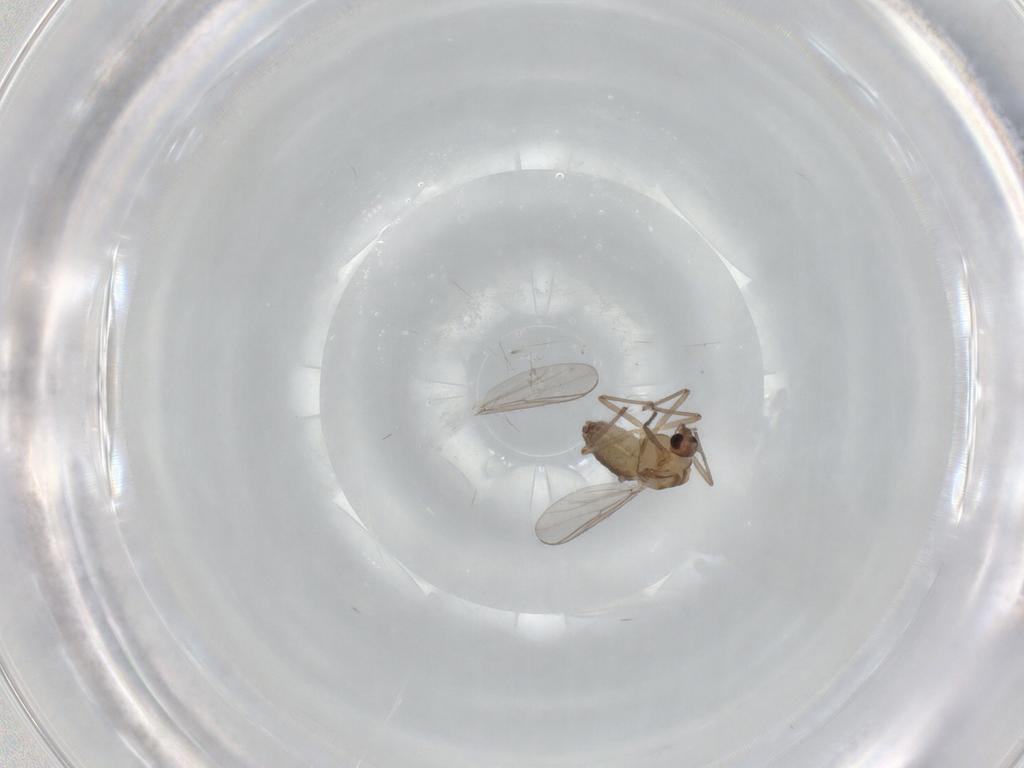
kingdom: Animalia
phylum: Arthropoda
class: Insecta
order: Diptera
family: Chironomidae
